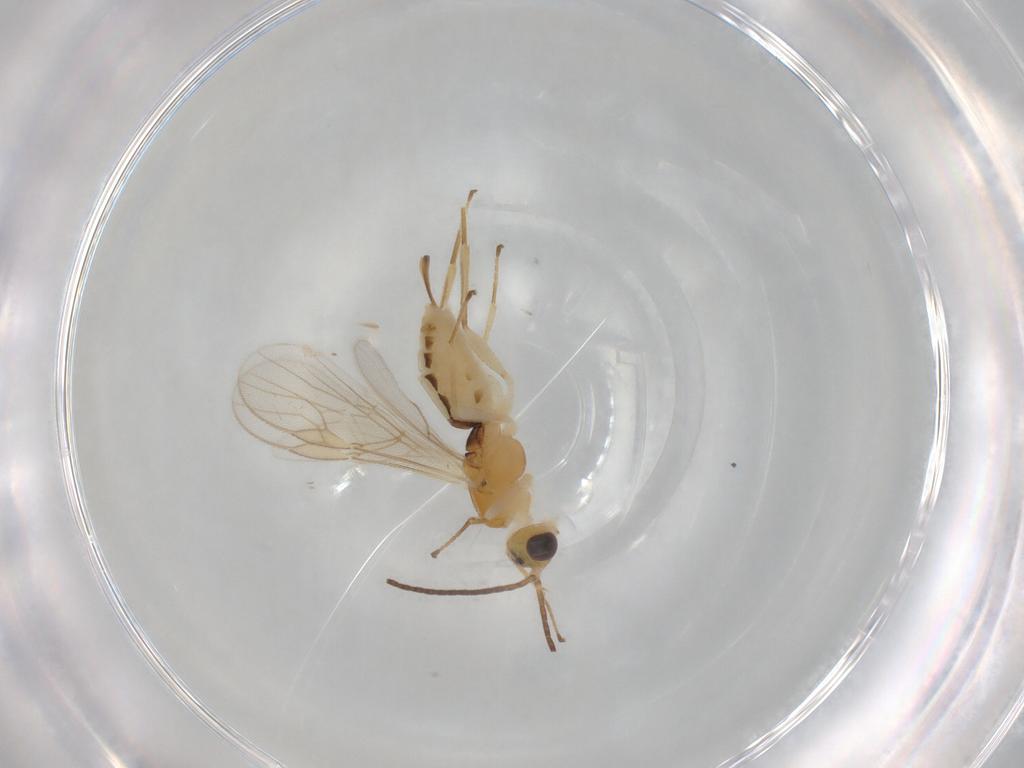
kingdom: Animalia
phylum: Arthropoda
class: Insecta
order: Hymenoptera
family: Braconidae
